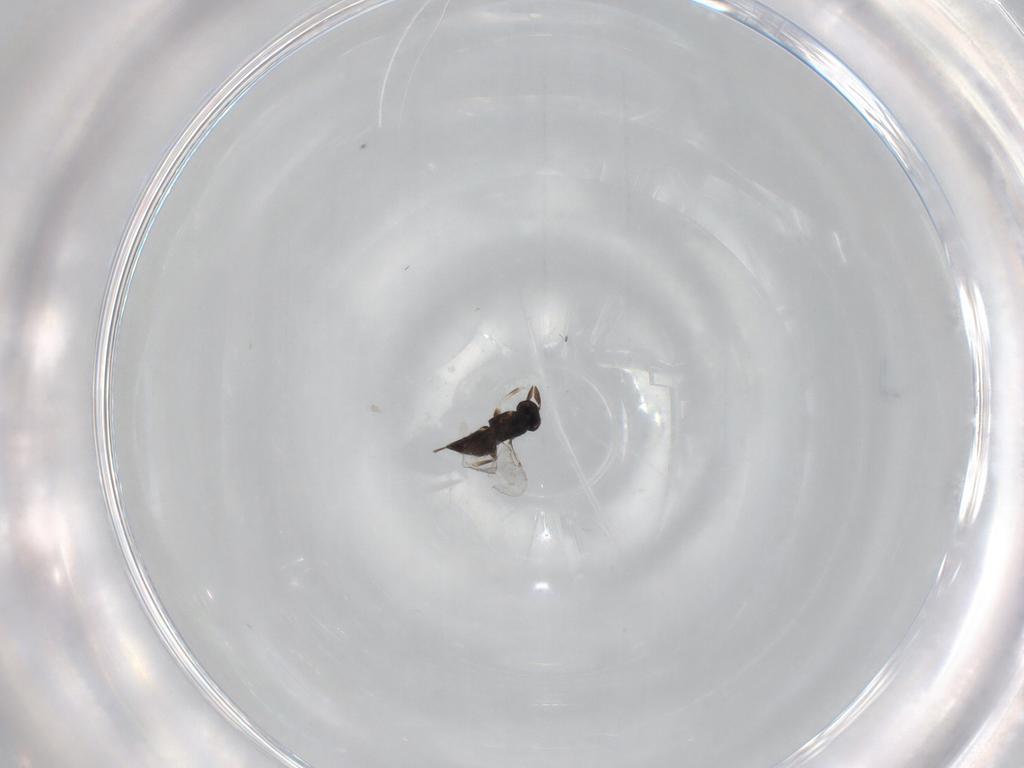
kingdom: Animalia
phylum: Arthropoda
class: Insecta
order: Hymenoptera
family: Encyrtidae
